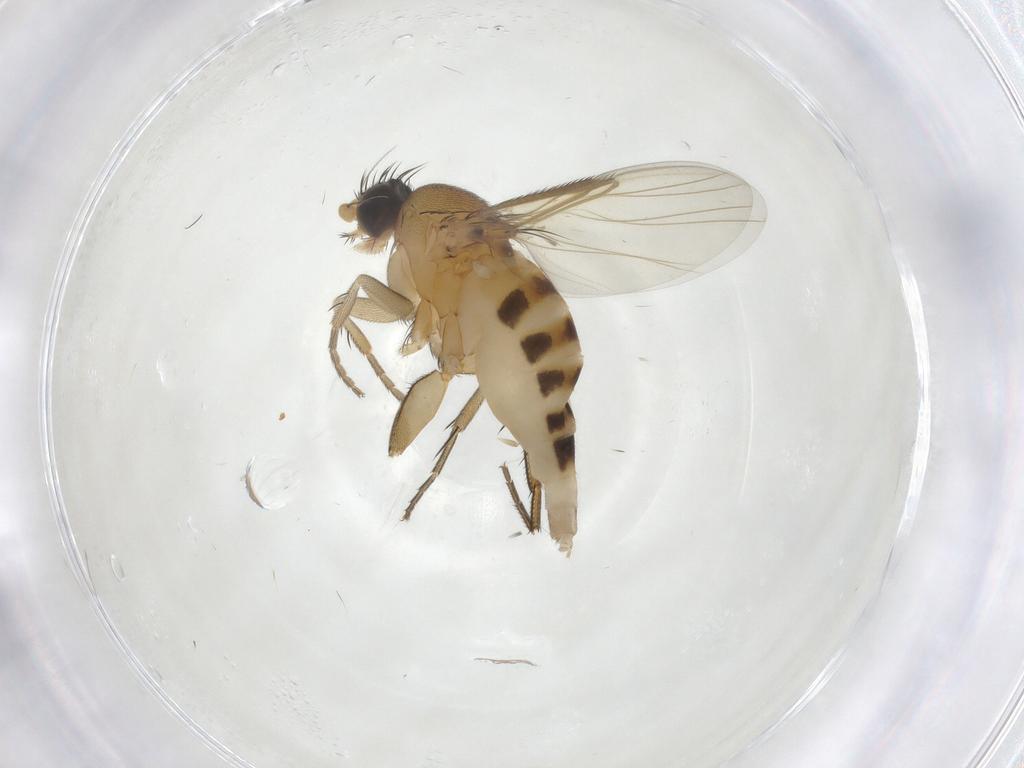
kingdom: Animalia
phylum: Arthropoda
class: Insecta
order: Diptera
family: Phoridae
